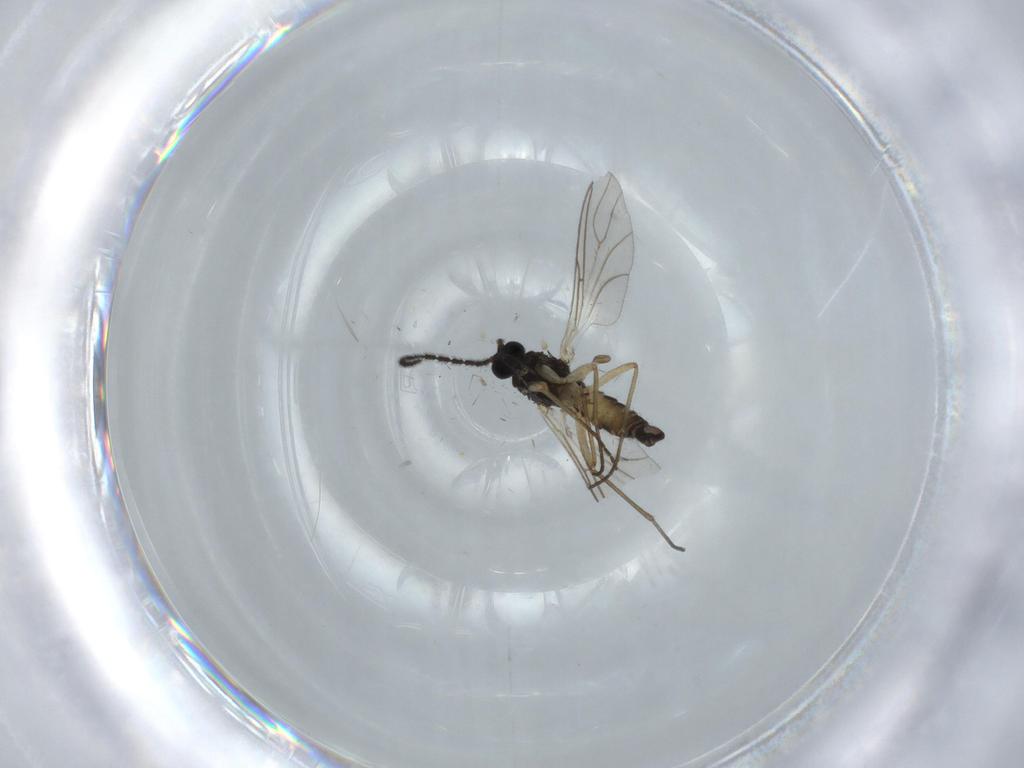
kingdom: Animalia
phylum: Arthropoda
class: Insecta
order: Diptera
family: Sciaridae
